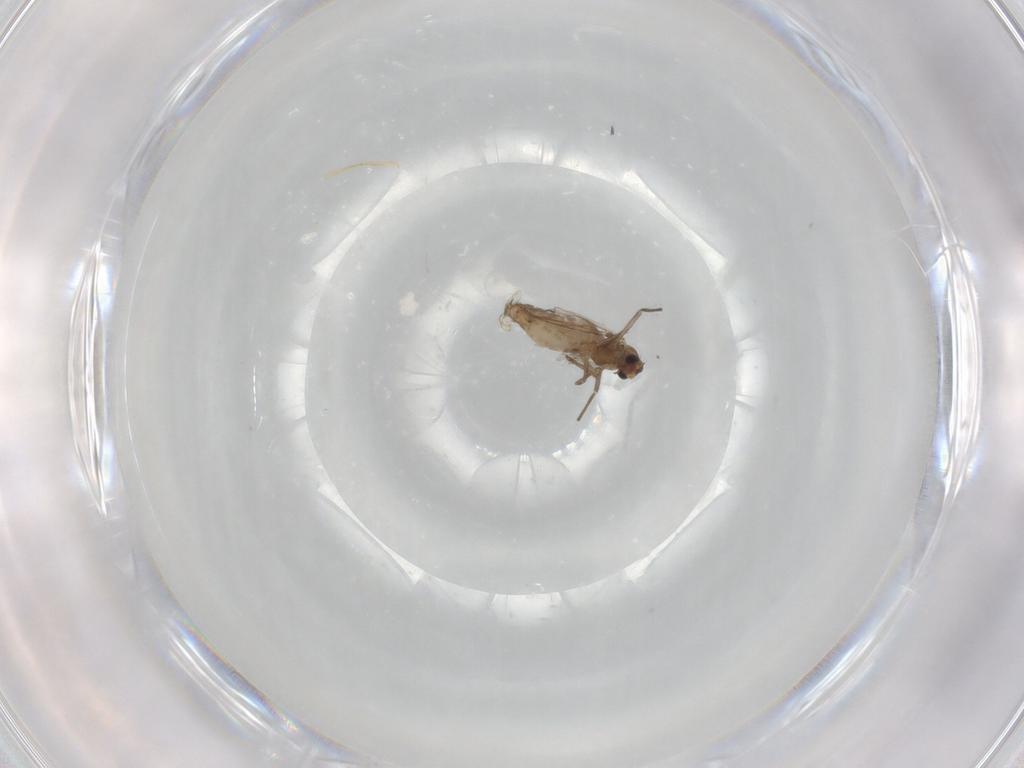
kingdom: Animalia
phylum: Arthropoda
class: Insecta
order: Diptera
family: Chironomidae
